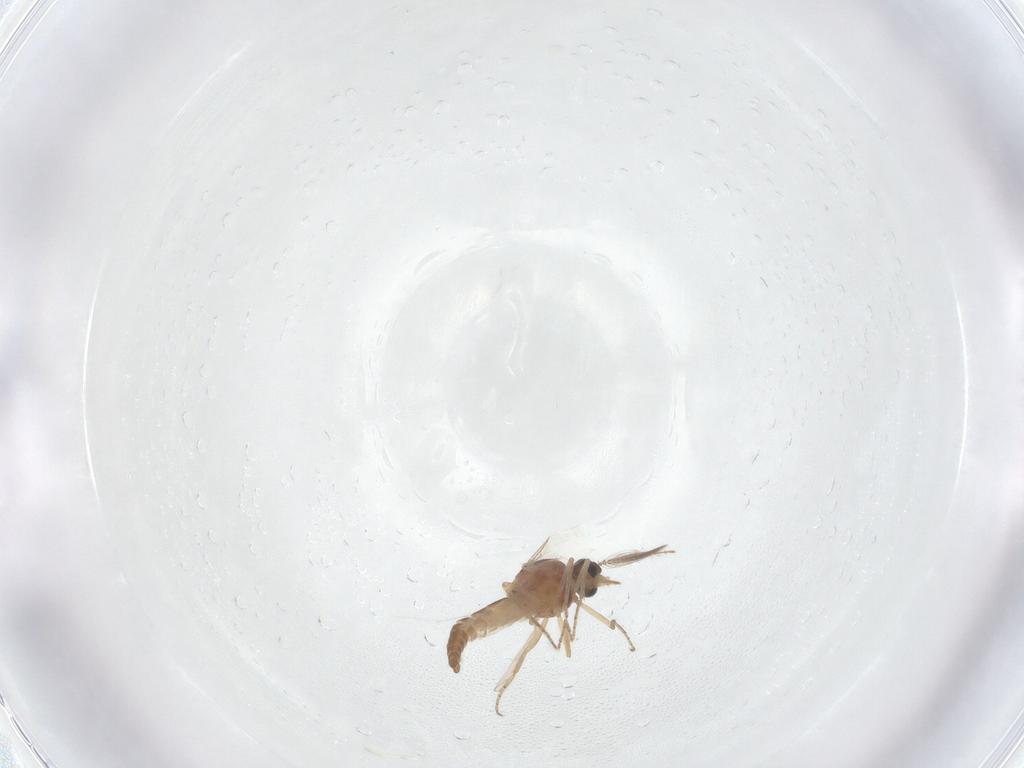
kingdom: Animalia
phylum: Arthropoda
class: Insecta
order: Diptera
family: Ceratopogonidae
